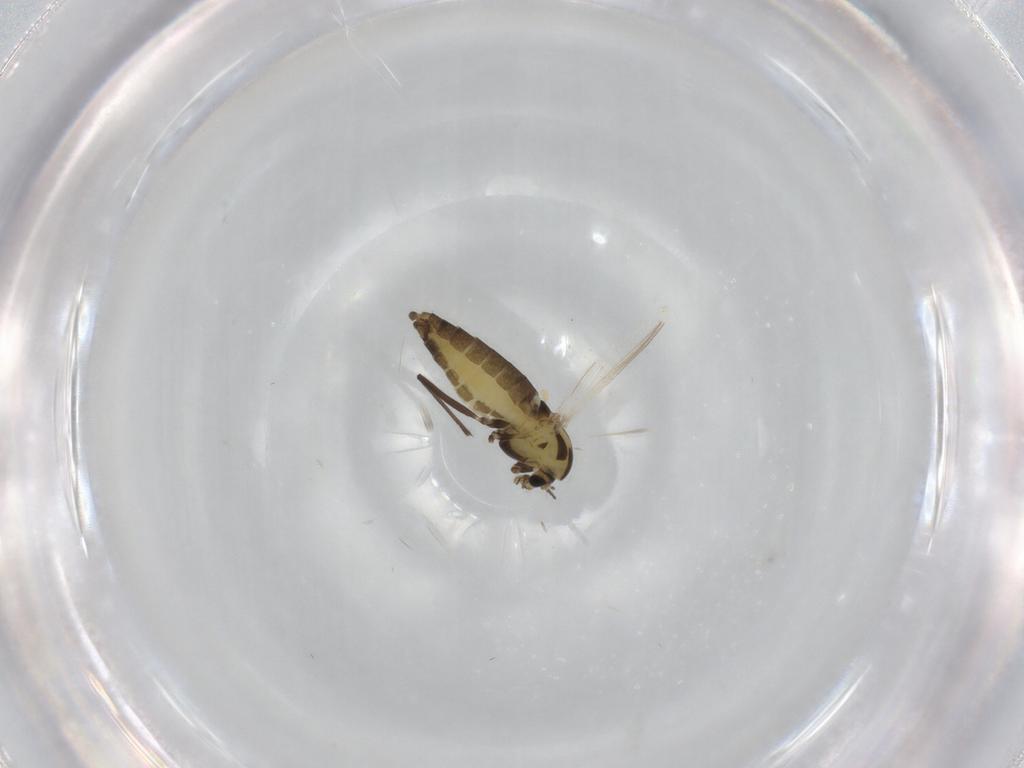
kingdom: Animalia
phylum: Arthropoda
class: Insecta
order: Diptera
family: Chironomidae
